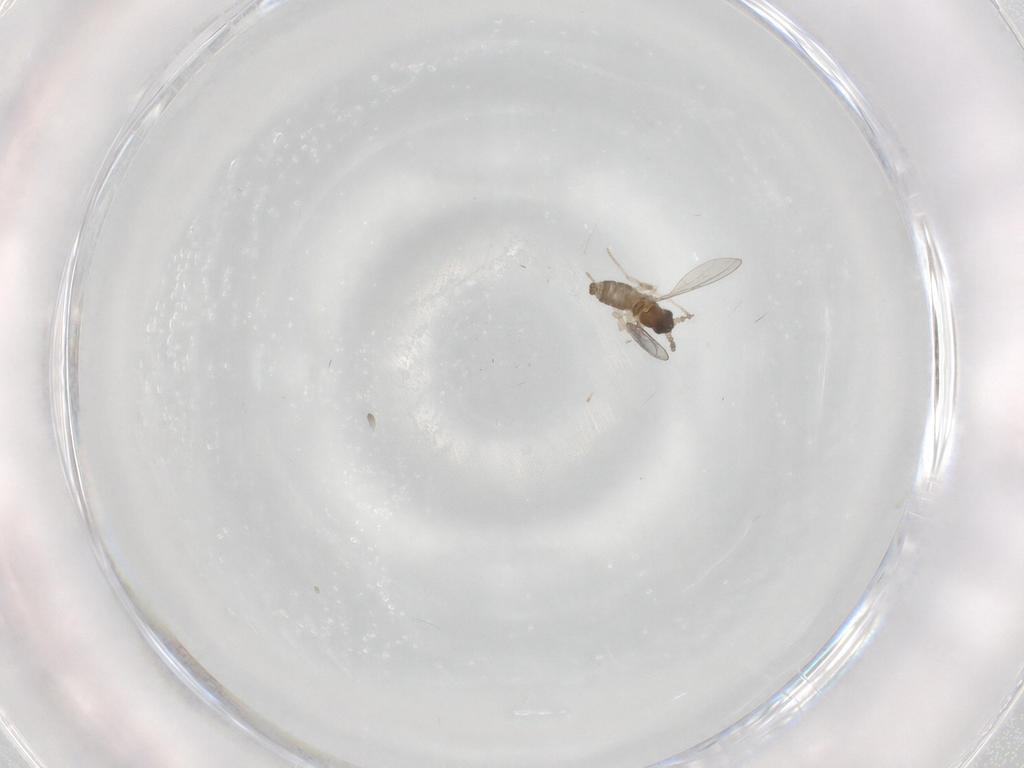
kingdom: Animalia
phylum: Arthropoda
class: Insecta
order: Diptera
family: Cecidomyiidae
